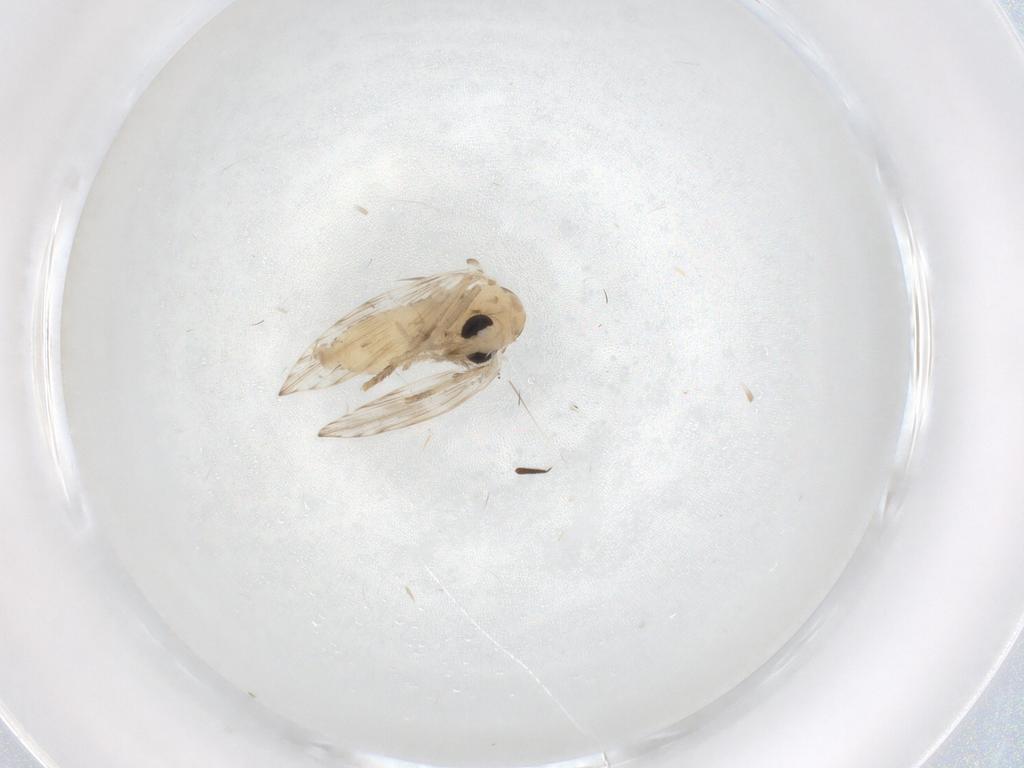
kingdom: Animalia
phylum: Arthropoda
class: Insecta
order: Diptera
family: Psychodidae
